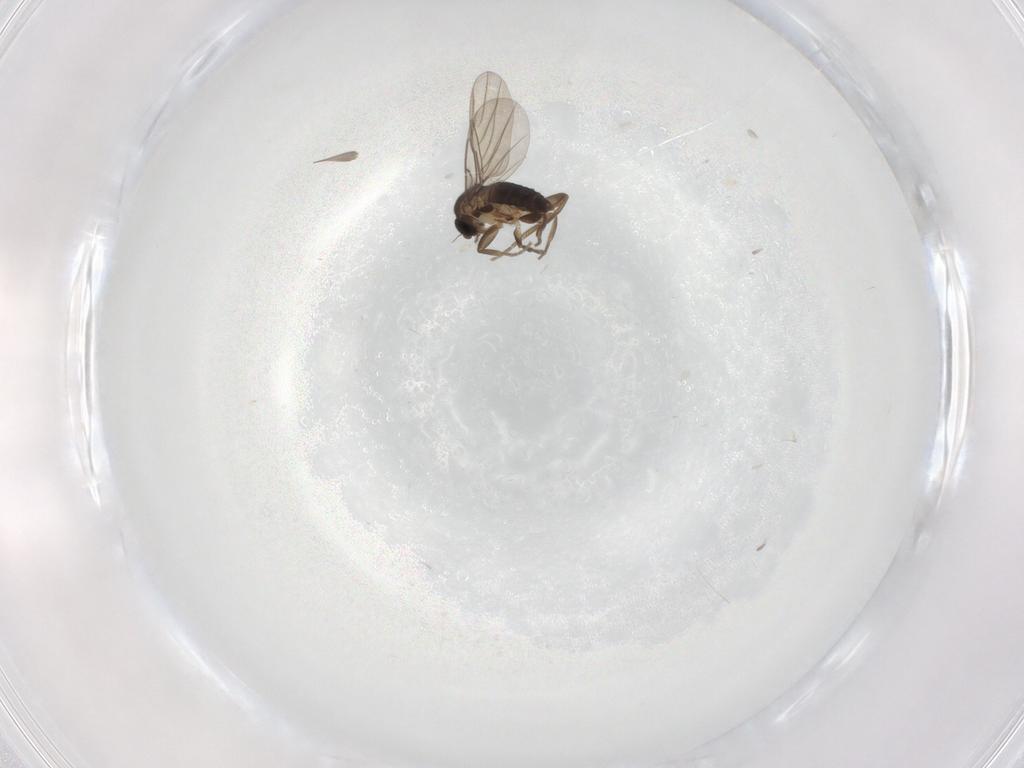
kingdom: Animalia
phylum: Arthropoda
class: Insecta
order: Diptera
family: Phoridae
